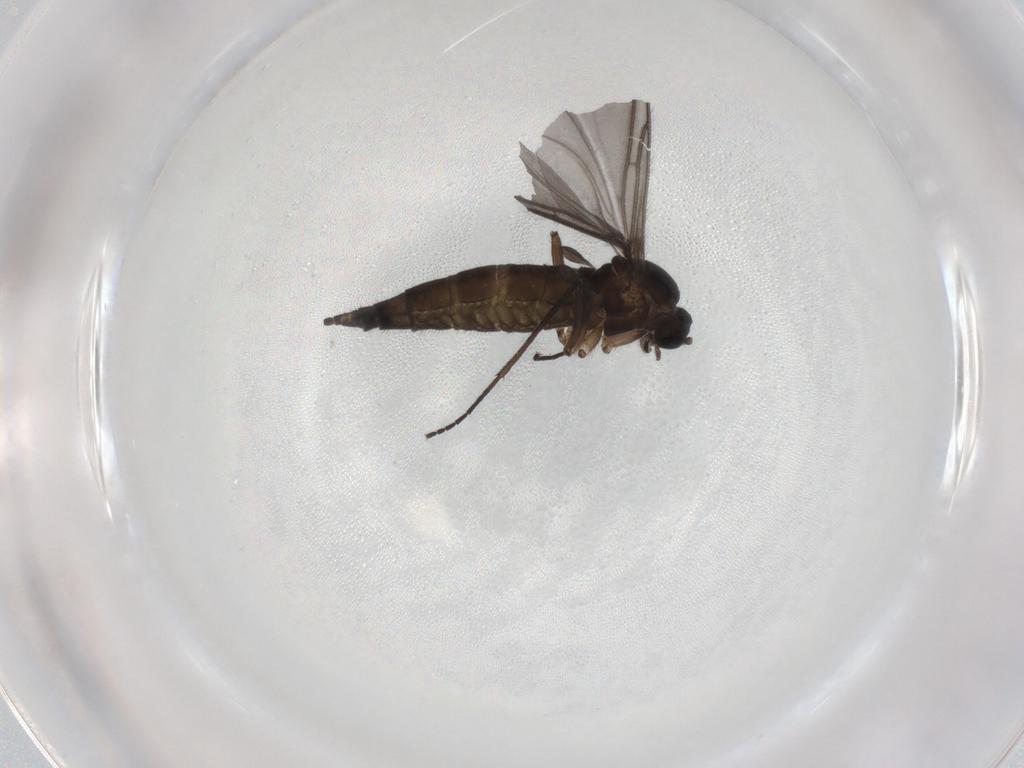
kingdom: Animalia
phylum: Arthropoda
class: Insecta
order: Diptera
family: Sciaridae
